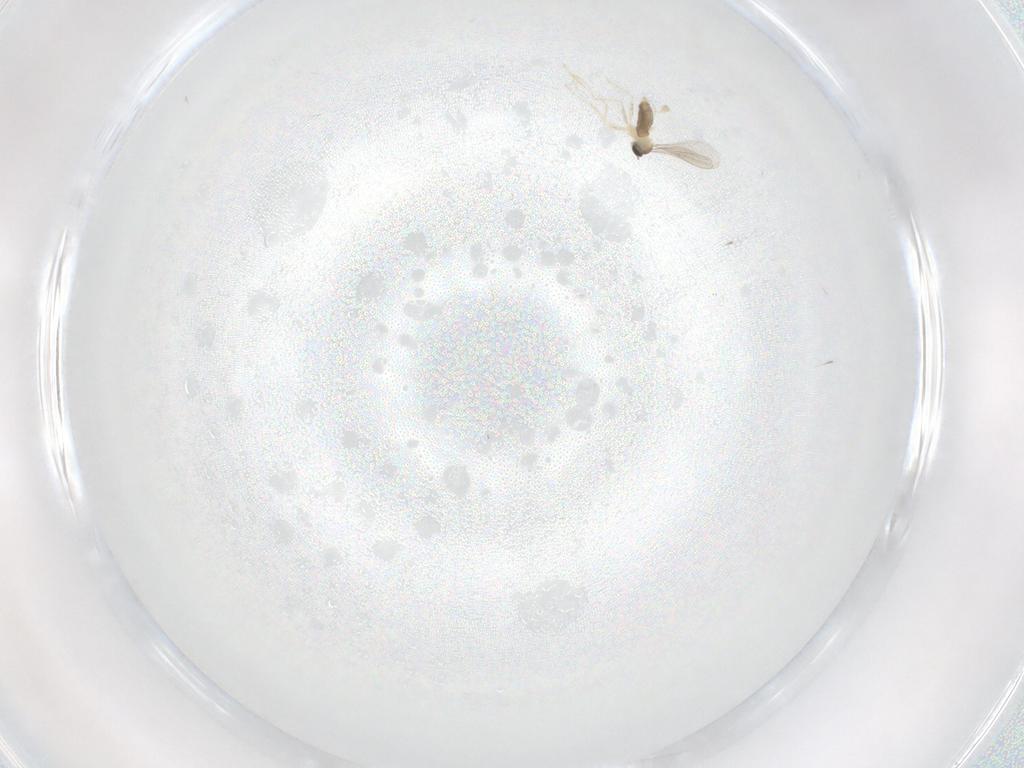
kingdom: Animalia
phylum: Arthropoda
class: Insecta
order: Diptera
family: Cecidomyiidae
